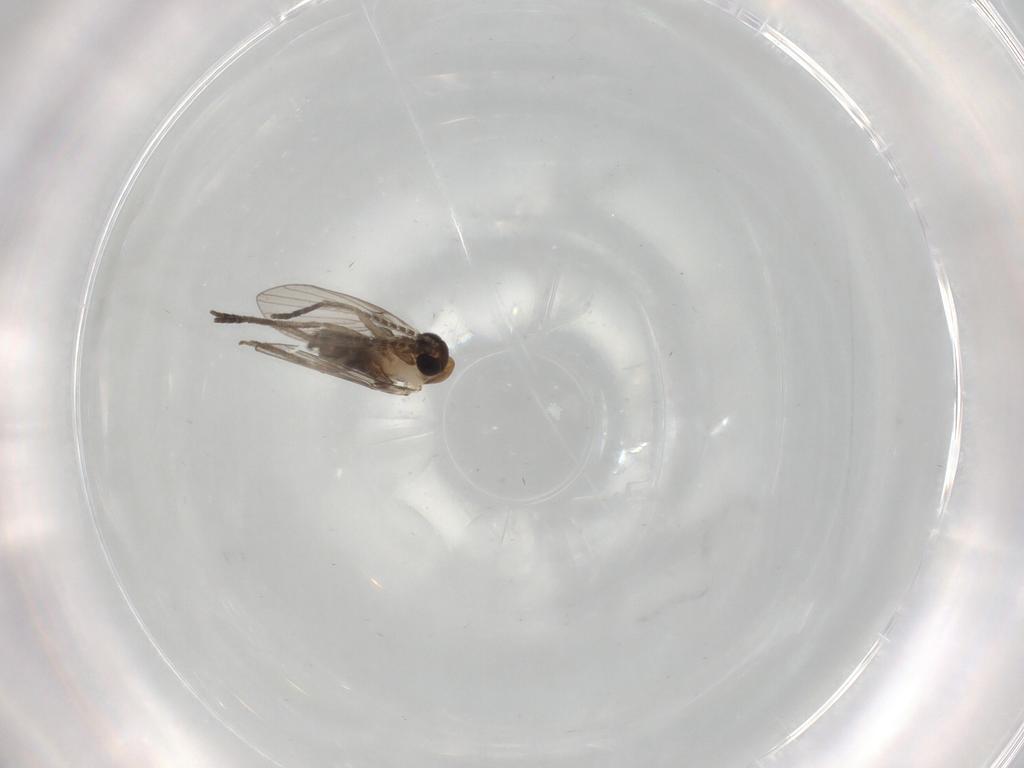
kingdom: Animalia
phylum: Arthropoda
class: Insecta
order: Diptera
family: Psychodidae
